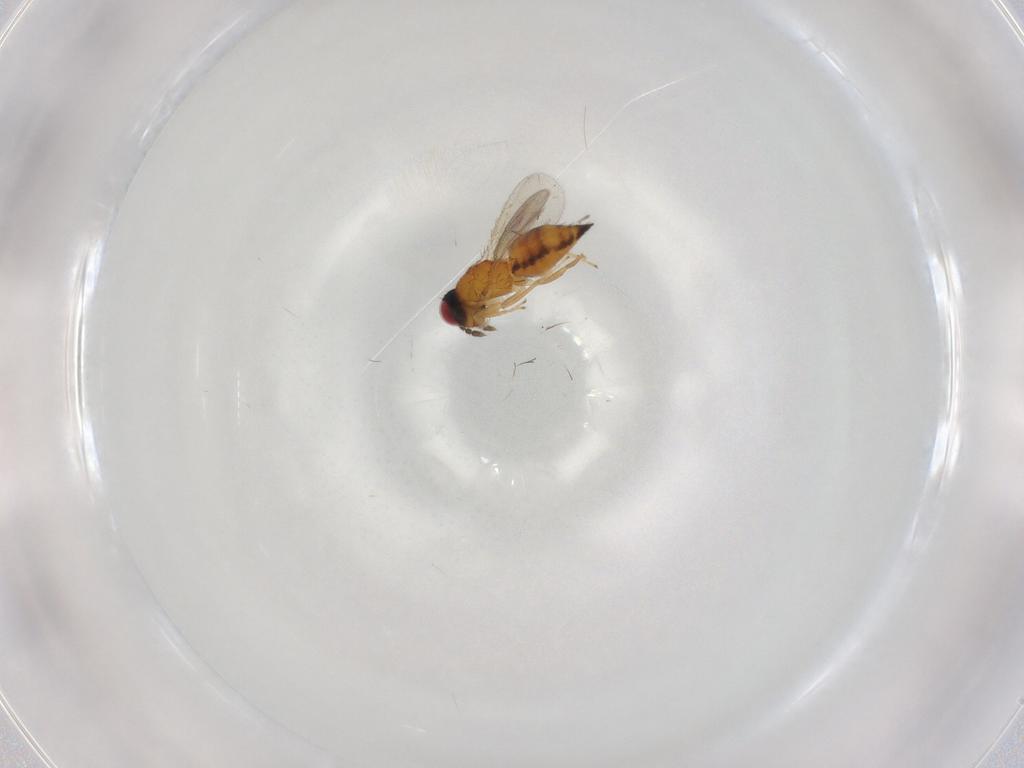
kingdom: Animalia
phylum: Arthropoda
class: Insecta
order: Hymenoptera
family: Eulophidae
